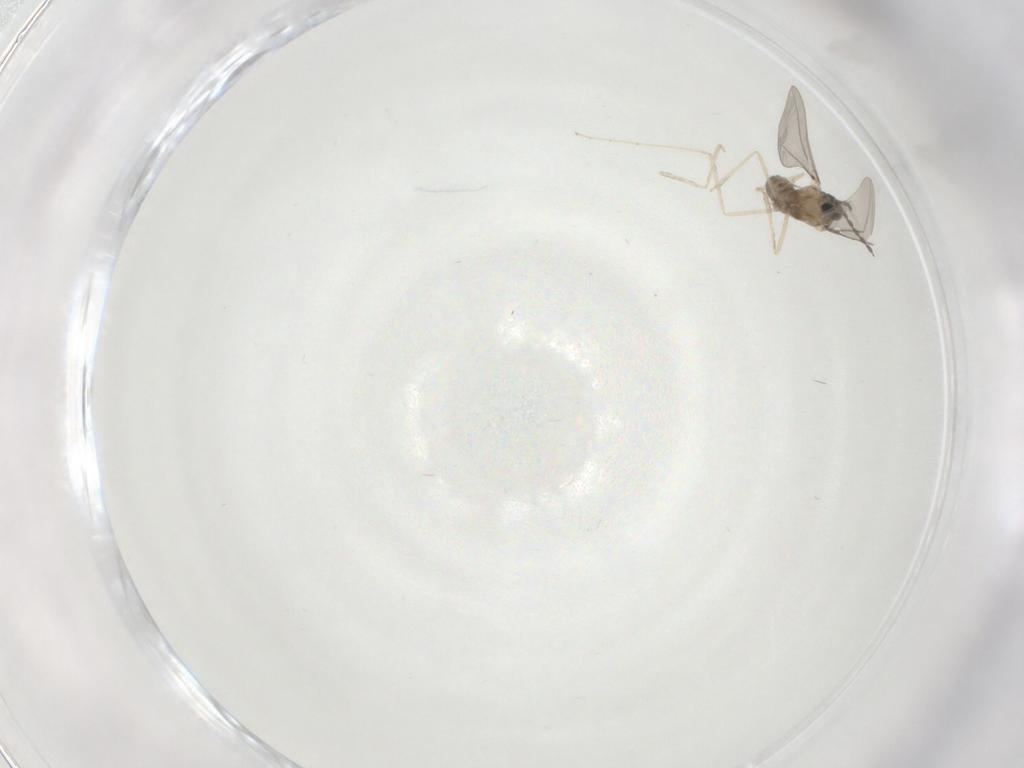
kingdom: Animalia
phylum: Arthropoda
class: Insecta
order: Diptera
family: Cecidomyiidae
